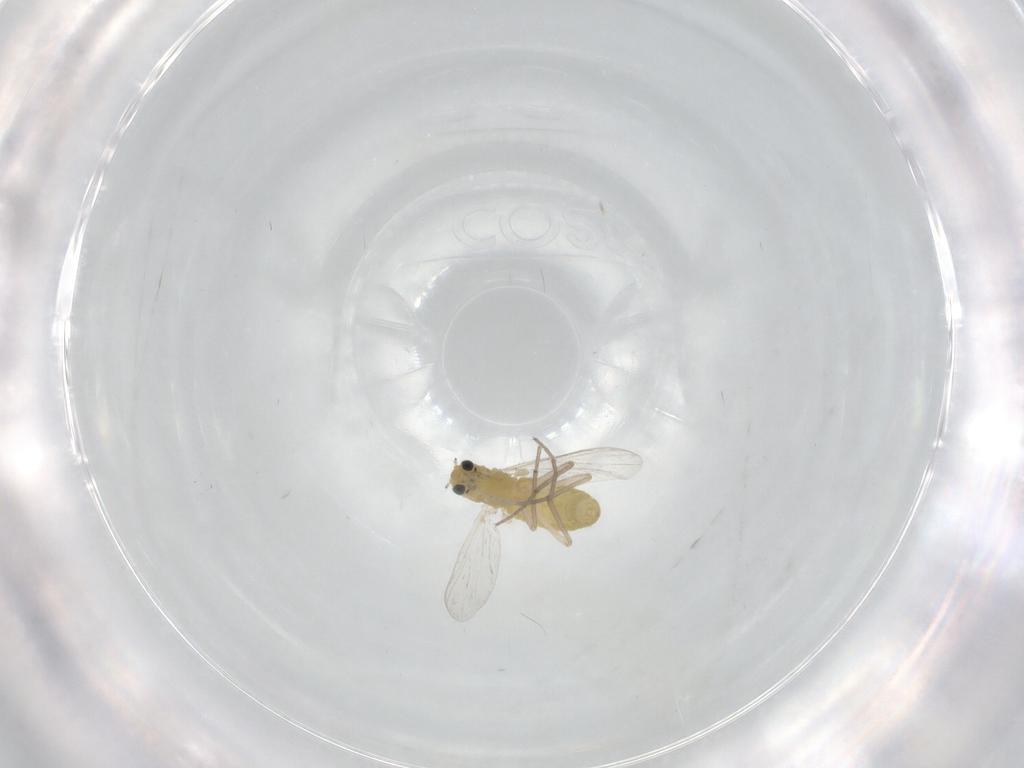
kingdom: Animalia
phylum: Arthropoda
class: Insecta
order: Diptera
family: Chironomidae
